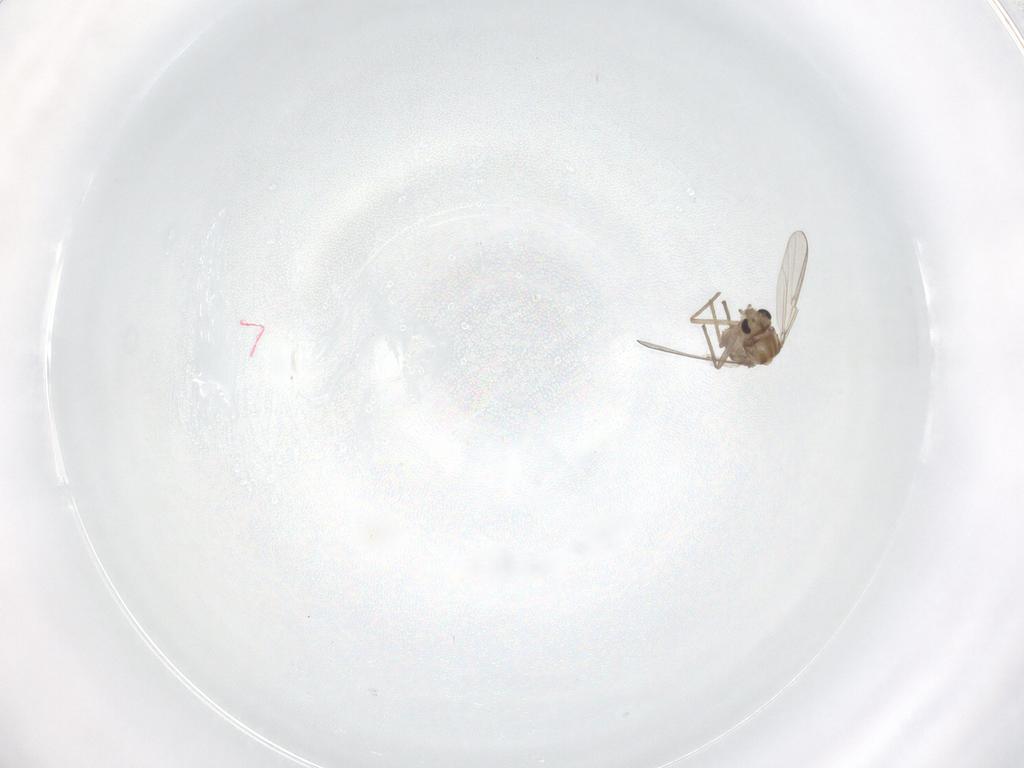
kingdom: Animalia
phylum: Arthropoda
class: Insecta
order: Diptera
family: Chironomidae
